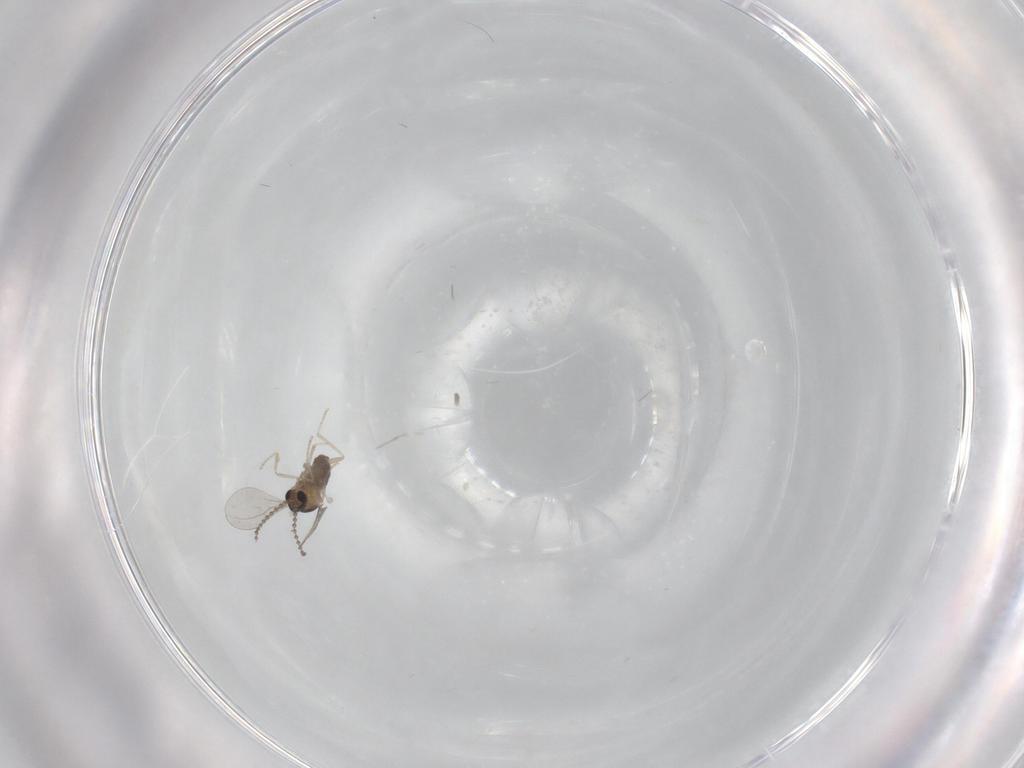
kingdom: Animalia
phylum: Arthropoda
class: Insecta
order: Diptera
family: Cecidomyiidae
